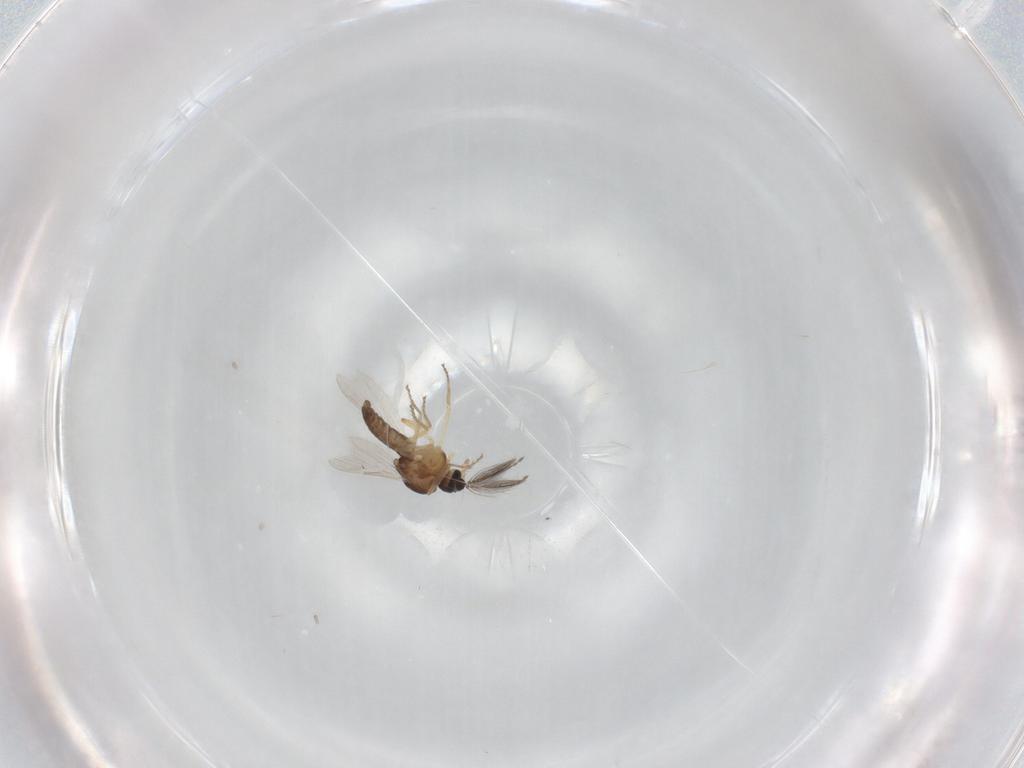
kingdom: Animalia
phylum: Arthropoda
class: Insecta
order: Diptera
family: Ceratopogonidae
